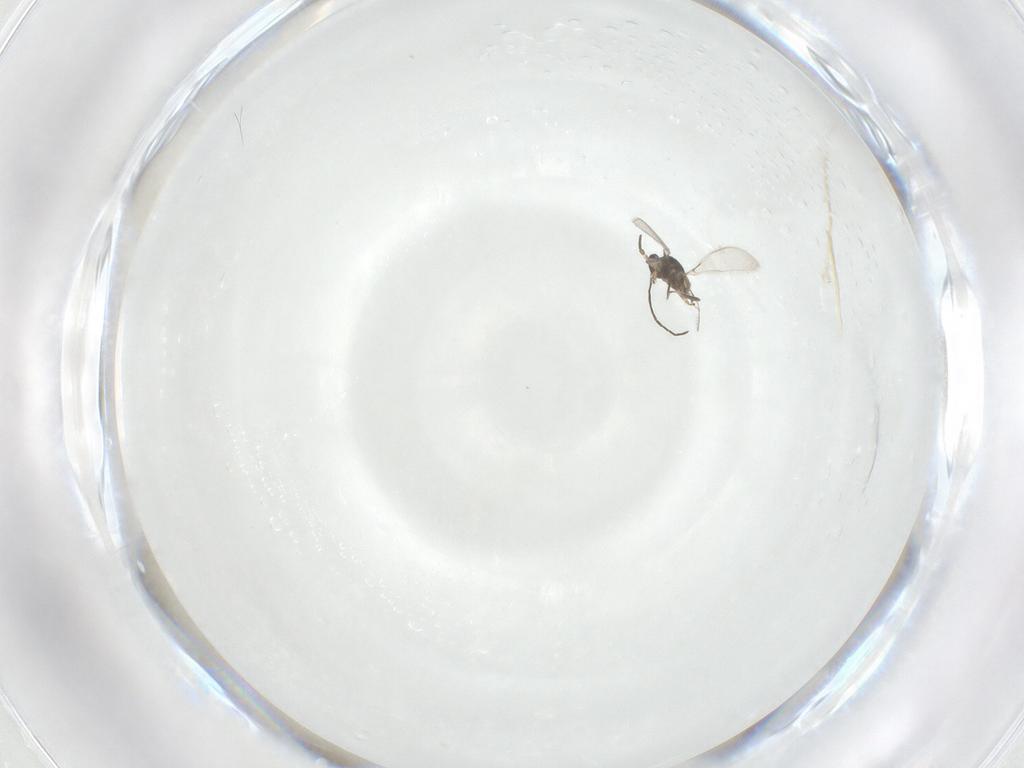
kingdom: Animalia
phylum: Arthropoda
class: Insecta
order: Hymenoptera
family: Mymaridae
